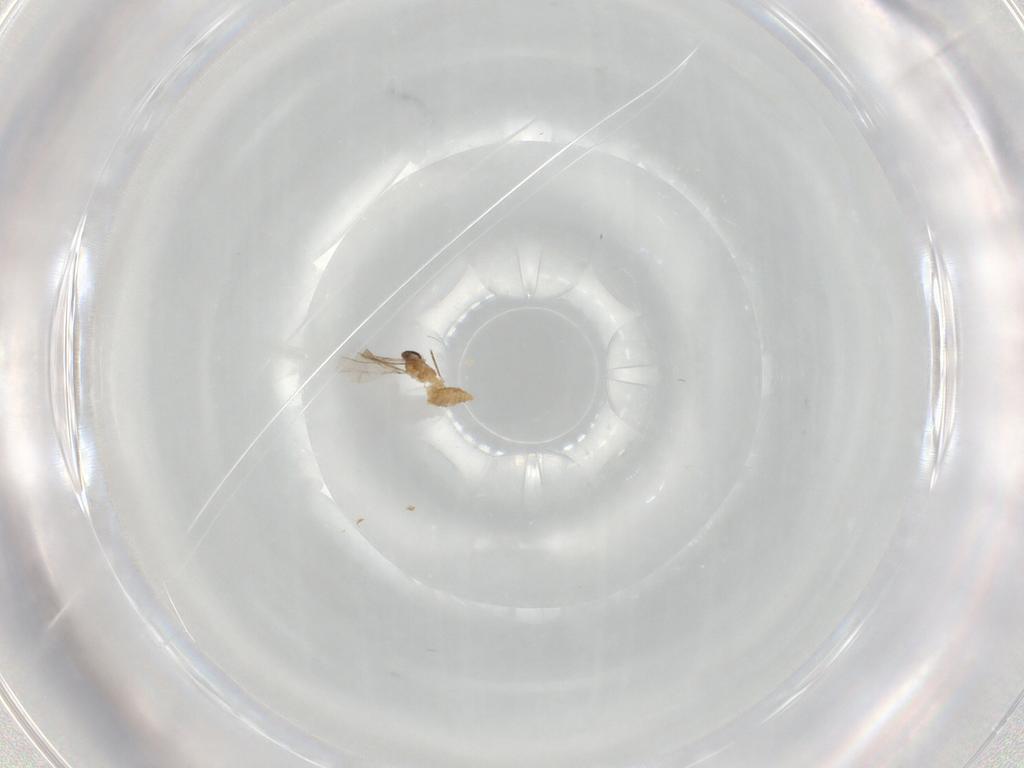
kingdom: Animalia
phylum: Arthropoda
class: Insecta
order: Diptera
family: Cecidomyiidae
